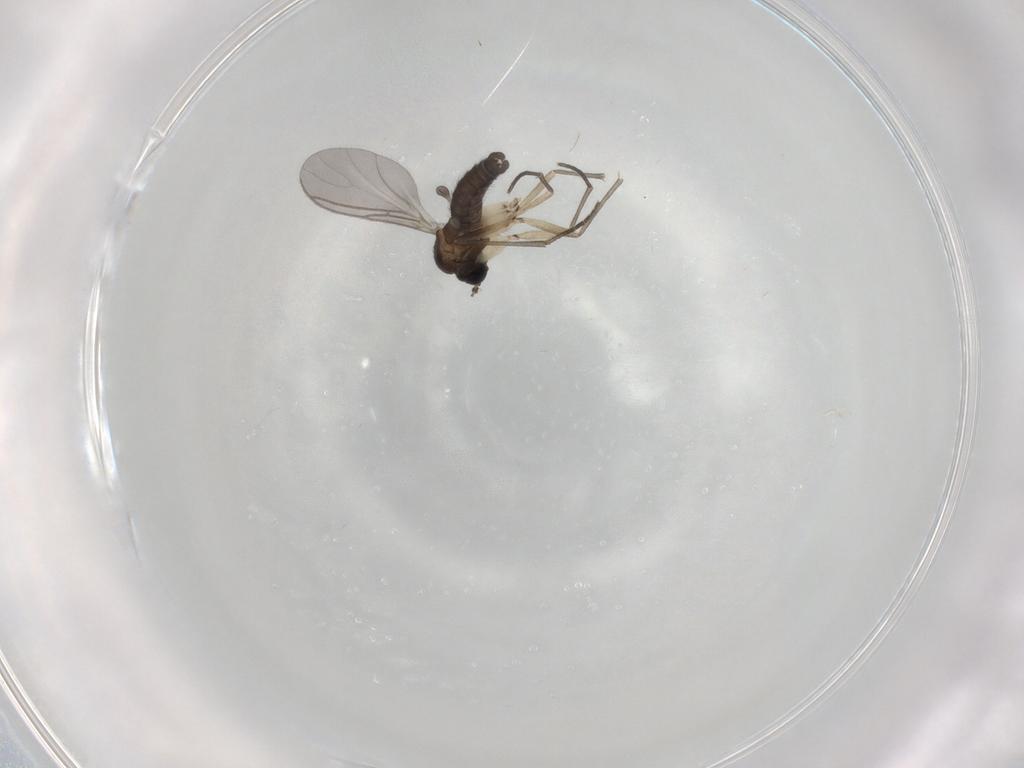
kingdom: Animalia
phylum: Arthropoda
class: Insecta
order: Diptera
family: Sciaridae
